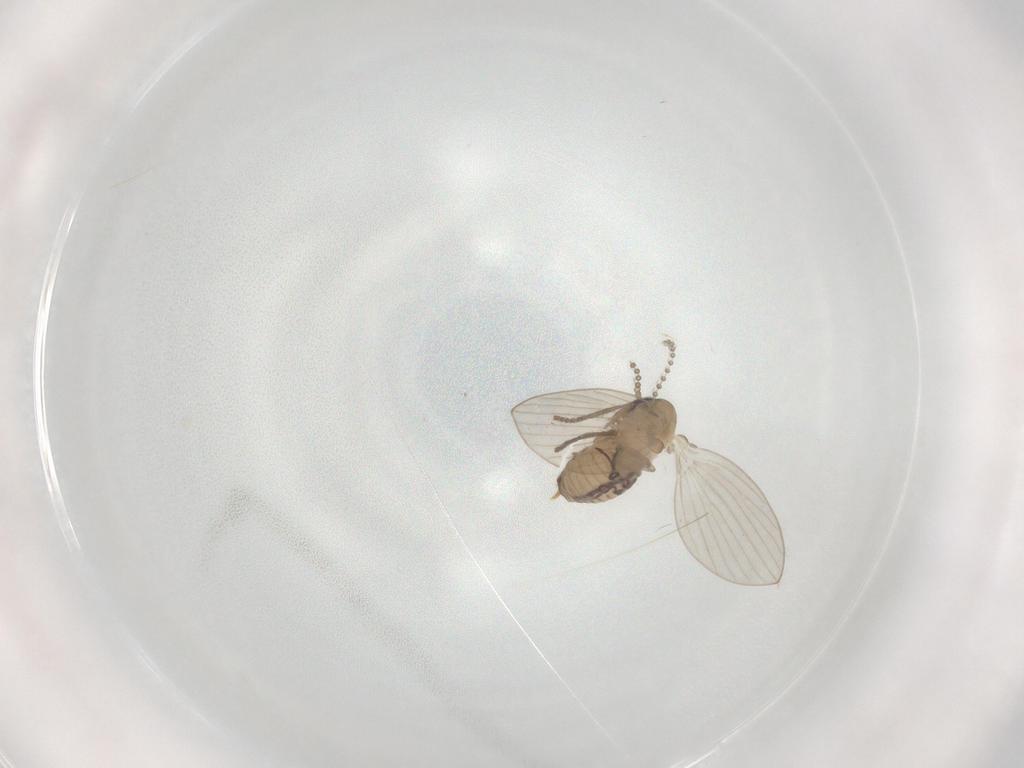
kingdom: Animalia
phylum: Arthropoda
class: Insecta
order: Diptera
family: Psychodidae
